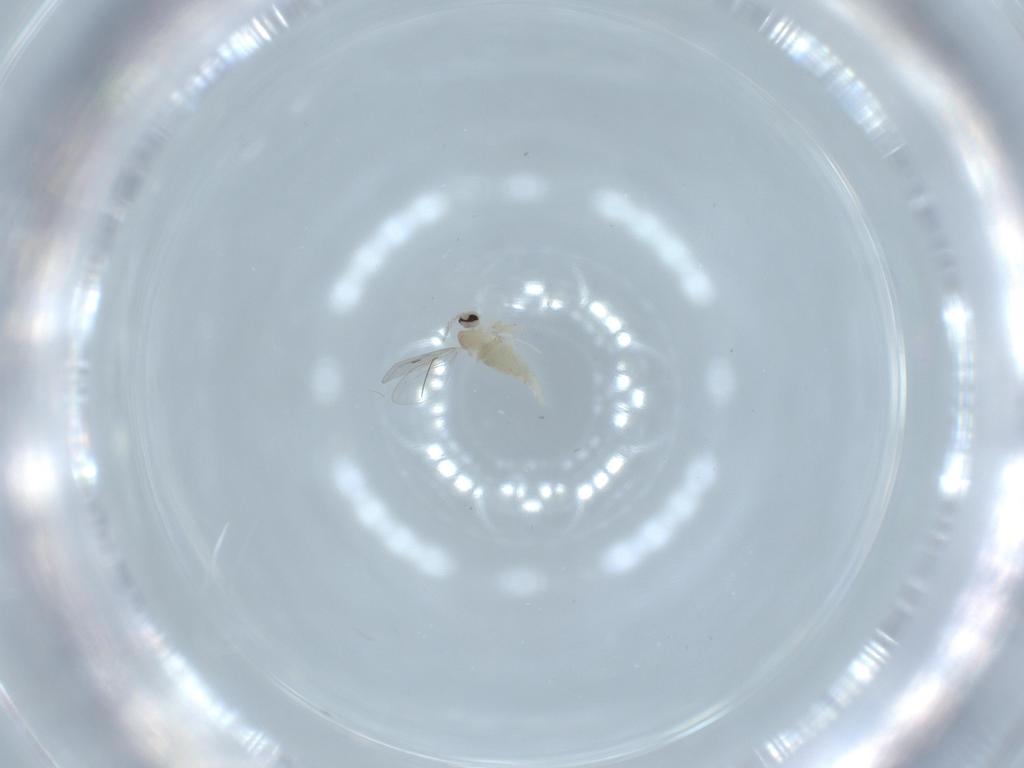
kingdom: Animalia
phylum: Arthropoda
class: Insecta
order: Diptera
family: Cecidomyiidae
